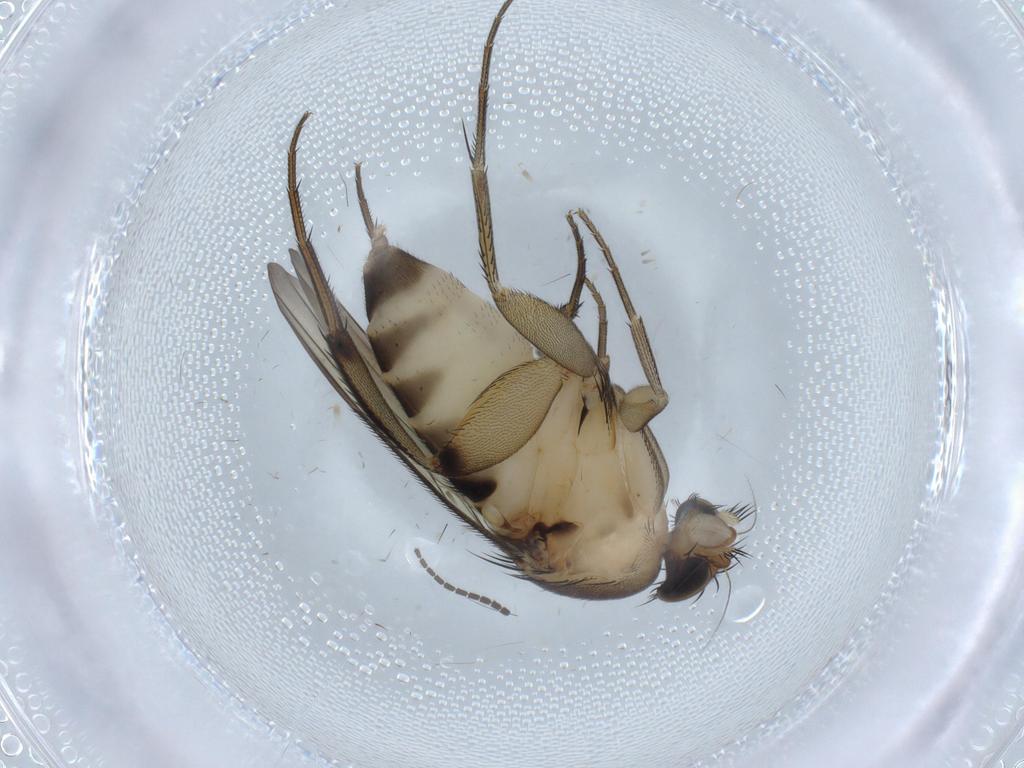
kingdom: Animalia
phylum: Arthropoda
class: Insecta
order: Diptera
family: Phoridae
